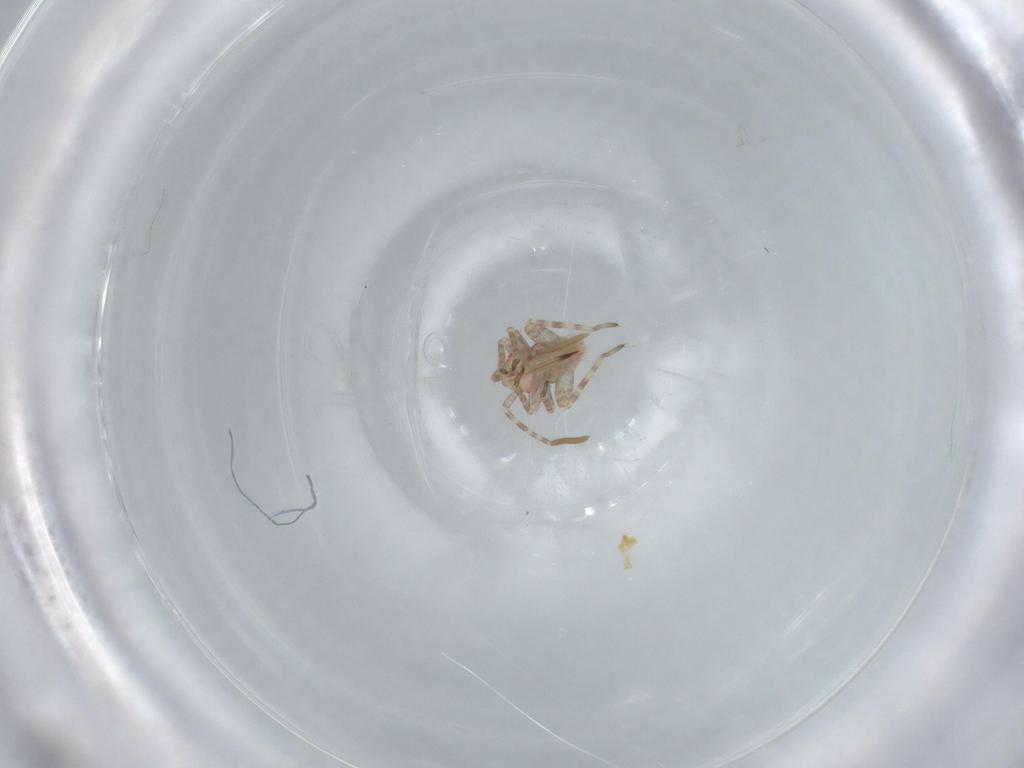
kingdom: Animalia
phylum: Arthropoda
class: Insecta
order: Hemiptera
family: Miridae
